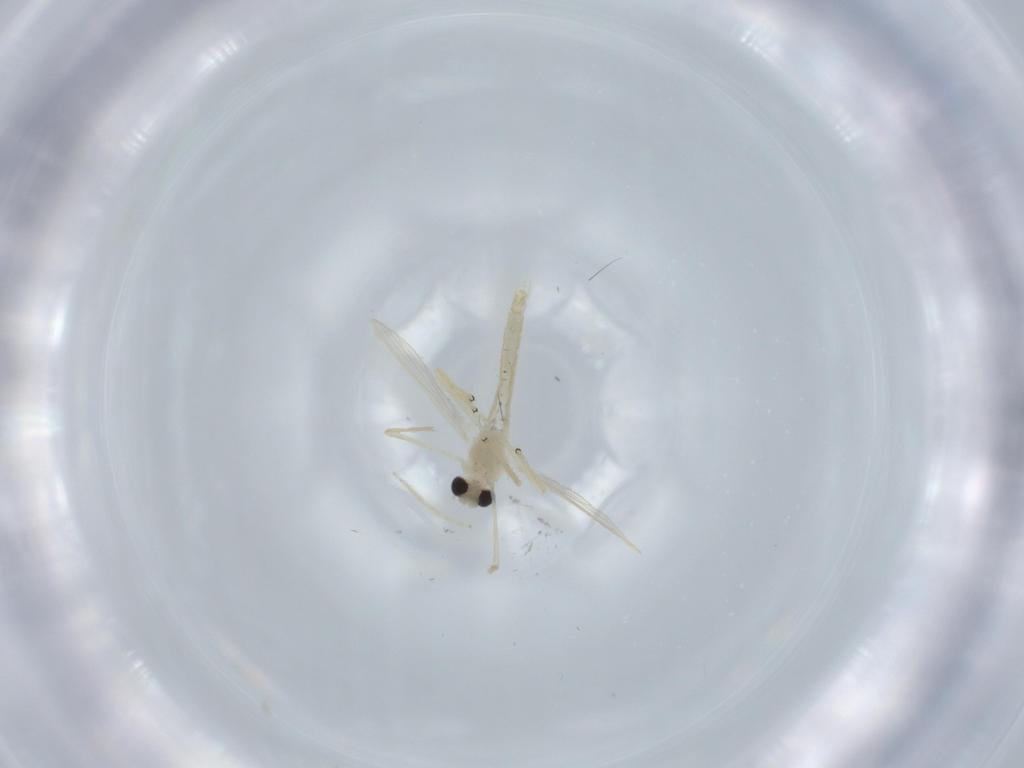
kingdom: Animalia
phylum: Arthropoda
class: Insecta
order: Diptera
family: Chironomidae
